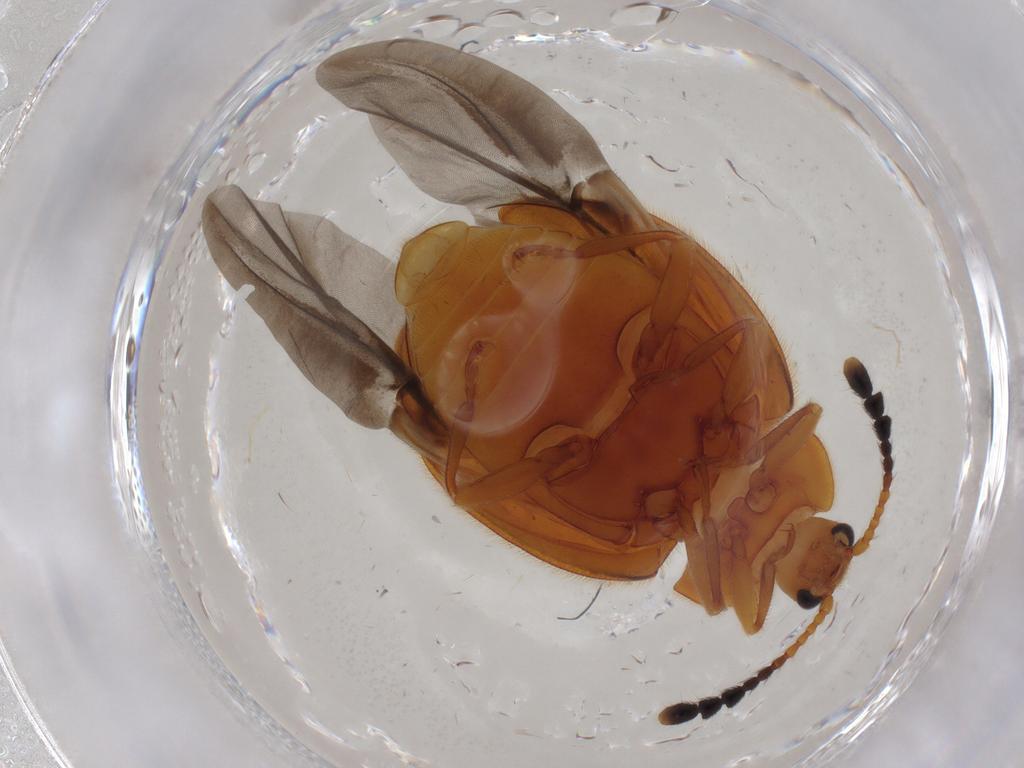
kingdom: Animalia
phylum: Arthropoda
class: Insecta
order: Coleoptera
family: Endomychidae
